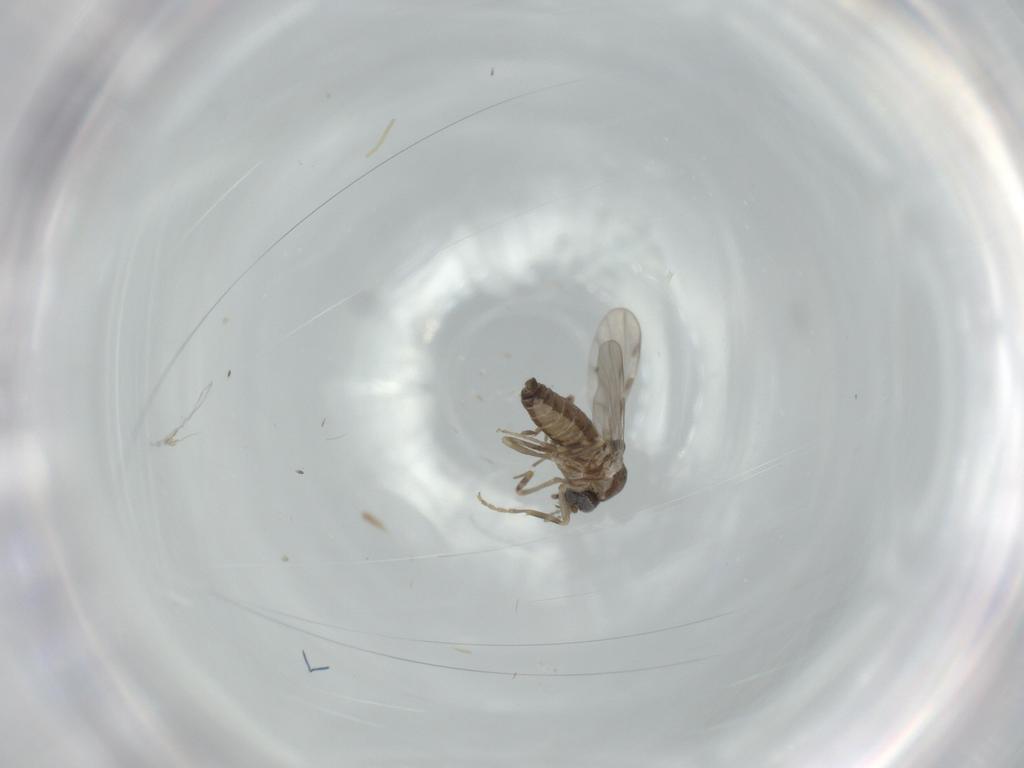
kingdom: Animalia
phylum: Arthropoda
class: Insecta
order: Diptera
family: Ceratopogonidae
